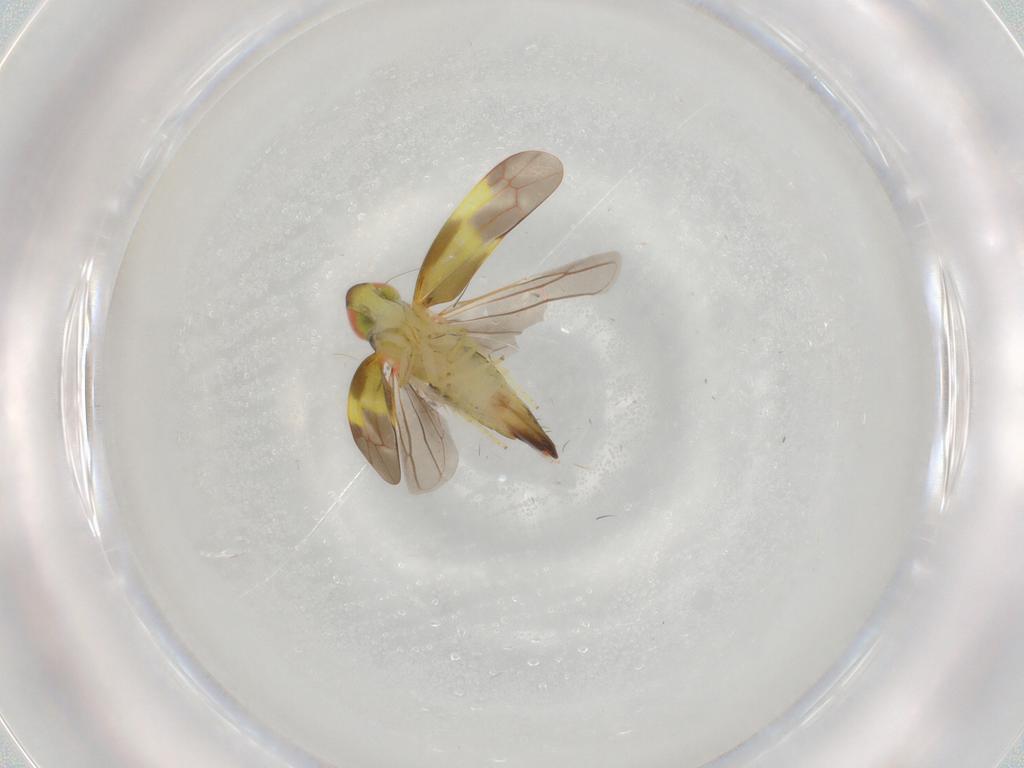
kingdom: Animalia
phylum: Arthropoda
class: Insecta
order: Hemiptera
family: Cicadellidae
